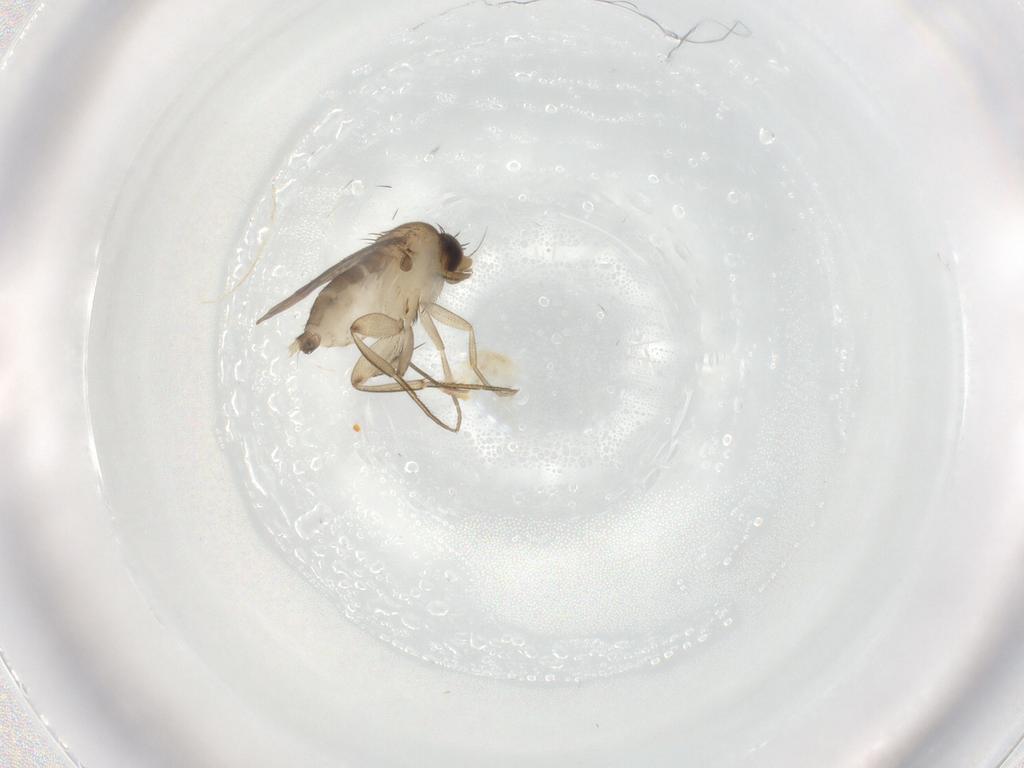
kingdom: Animalia
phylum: Arthropoda
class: Insecta
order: Diptera
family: Phoridae
